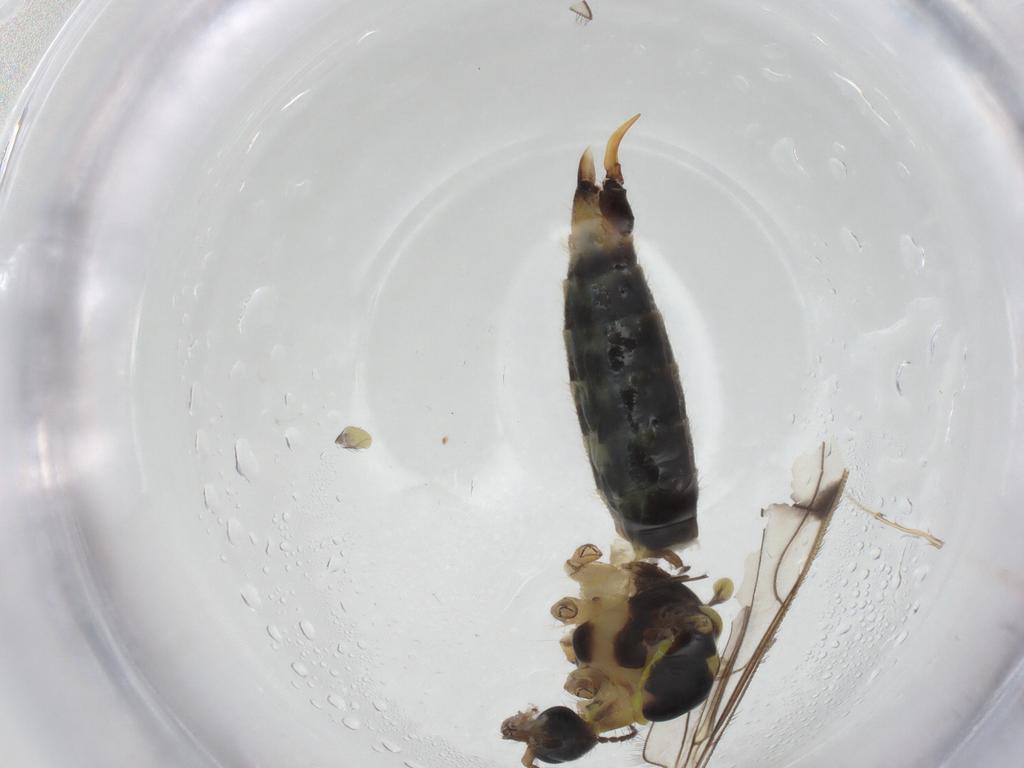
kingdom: Animalia
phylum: Arthropoda
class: Insecta
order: Diptera
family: Limoniidae
